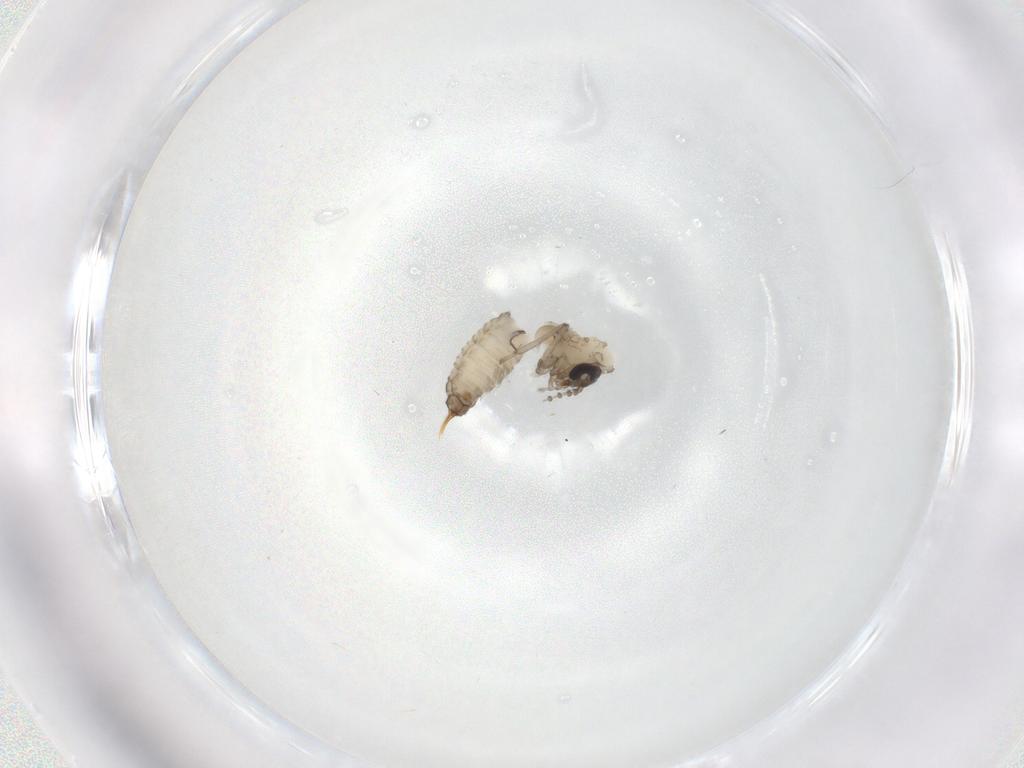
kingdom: Animalia
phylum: Arthropoda
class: Insecta
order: Diptera
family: Psychodidae
